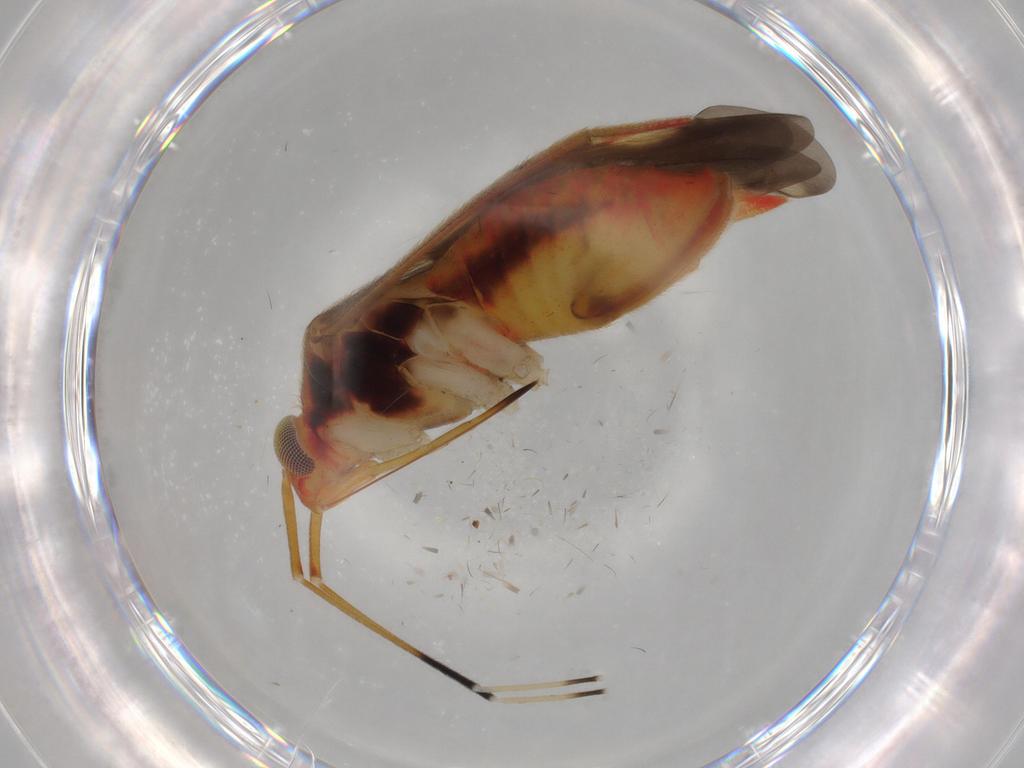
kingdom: Animalia
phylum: Arthropoda
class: Insecta
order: Hemiptera
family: Miridae
